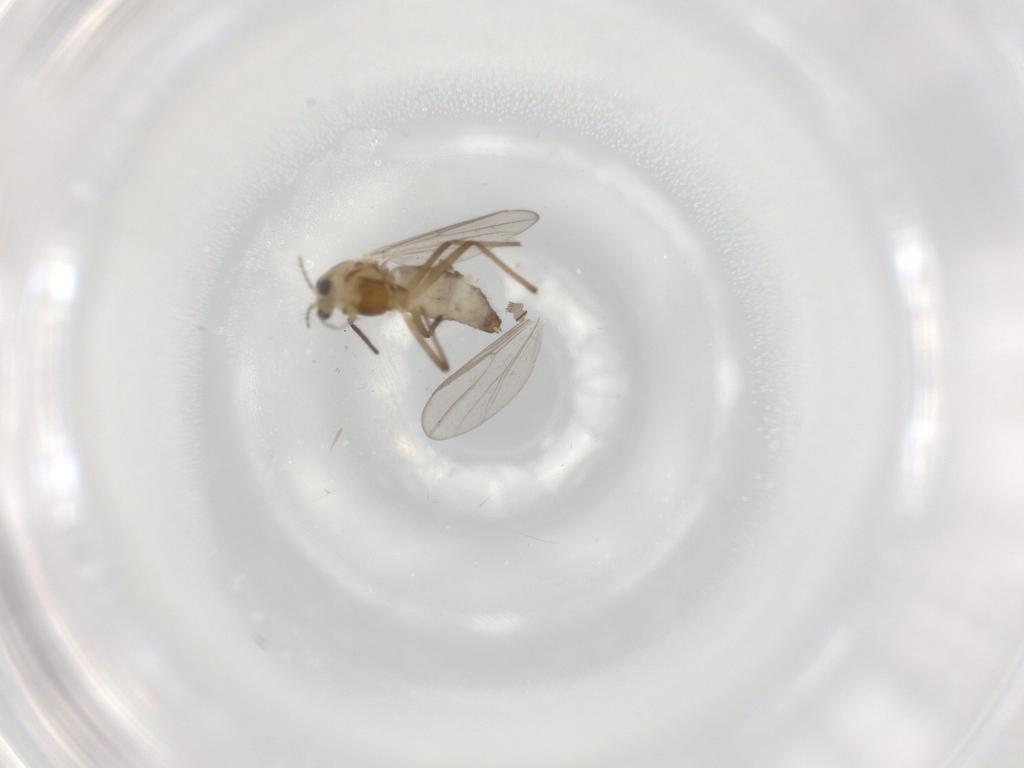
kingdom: Animalia
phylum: Arthropoda
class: Insecta
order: Diptera
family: Chironomidae
